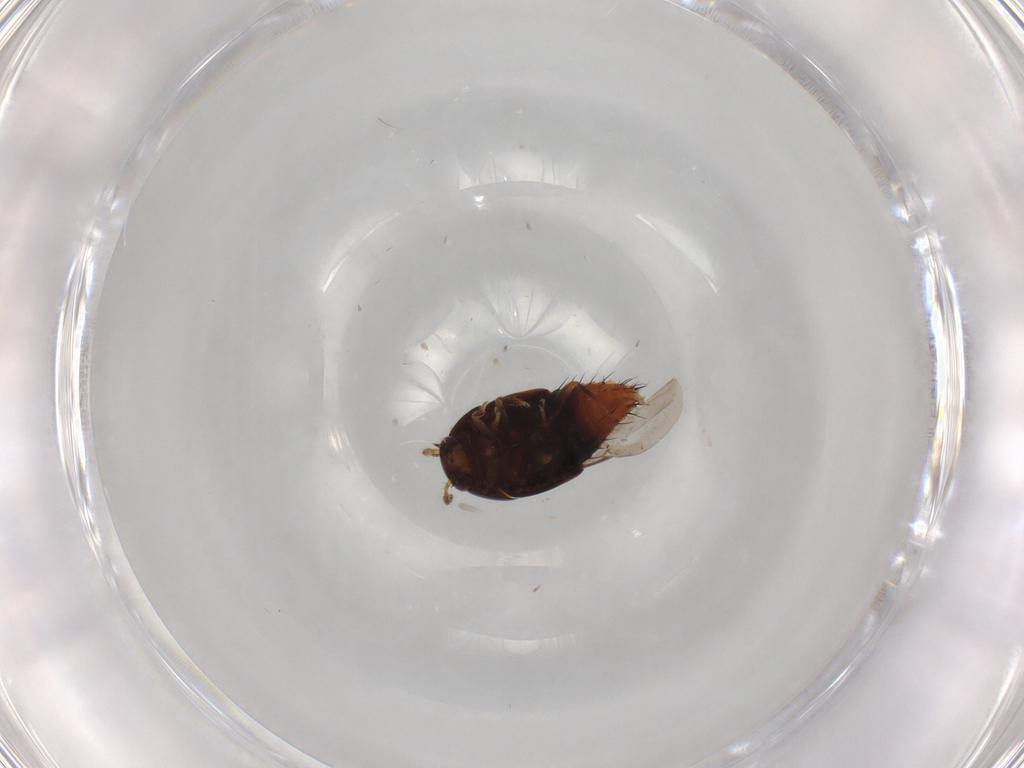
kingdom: Animalia
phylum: Arthropoda
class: Insecta
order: Coleoptera
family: Staphylinidae
